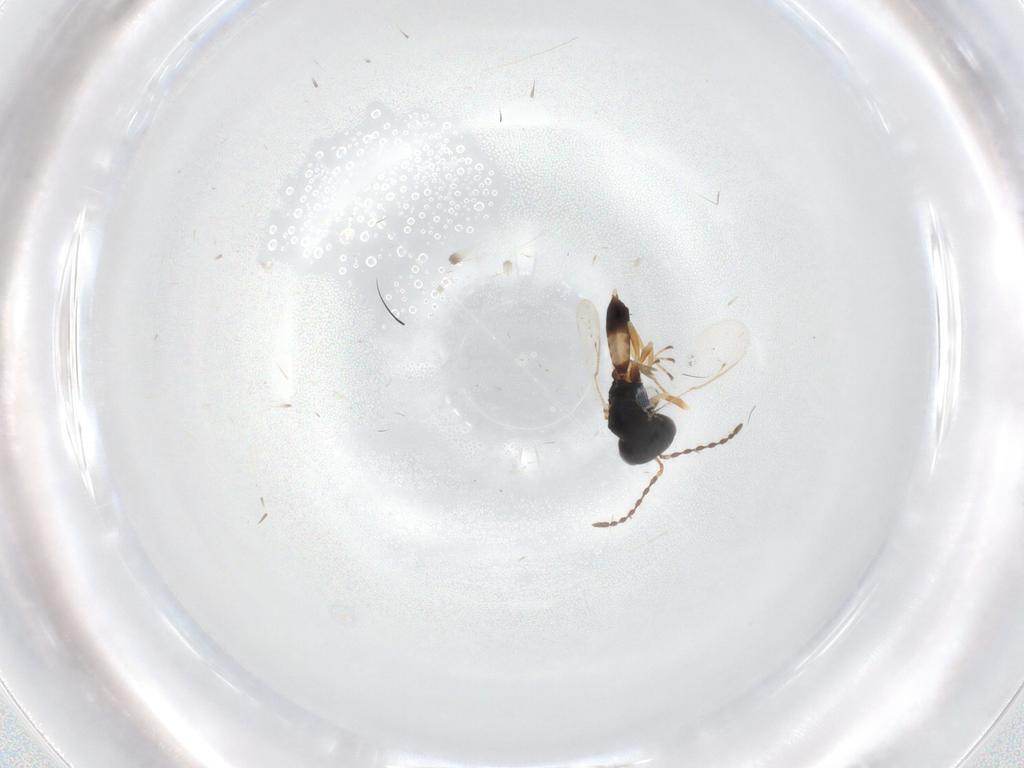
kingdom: Animalia
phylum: Arthropoda
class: Insecta
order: Hymenoptera
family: Pteromalidae
